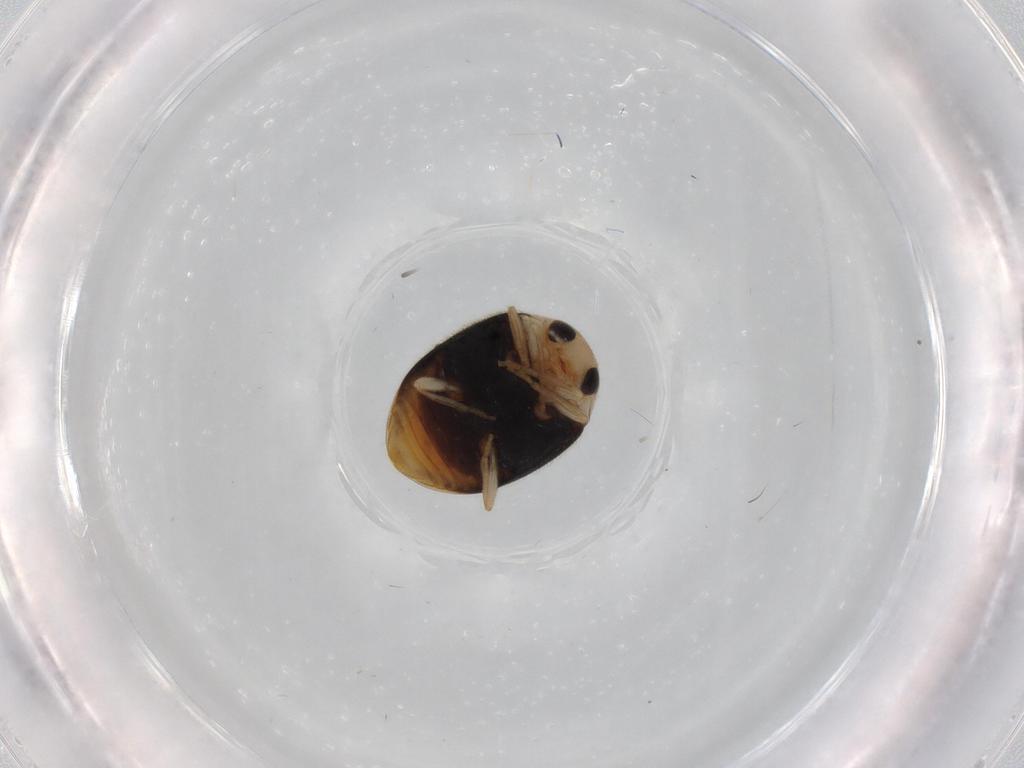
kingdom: Animalia
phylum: Arthropoda
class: Insecta
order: Coleoptera
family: Coccinellidae
